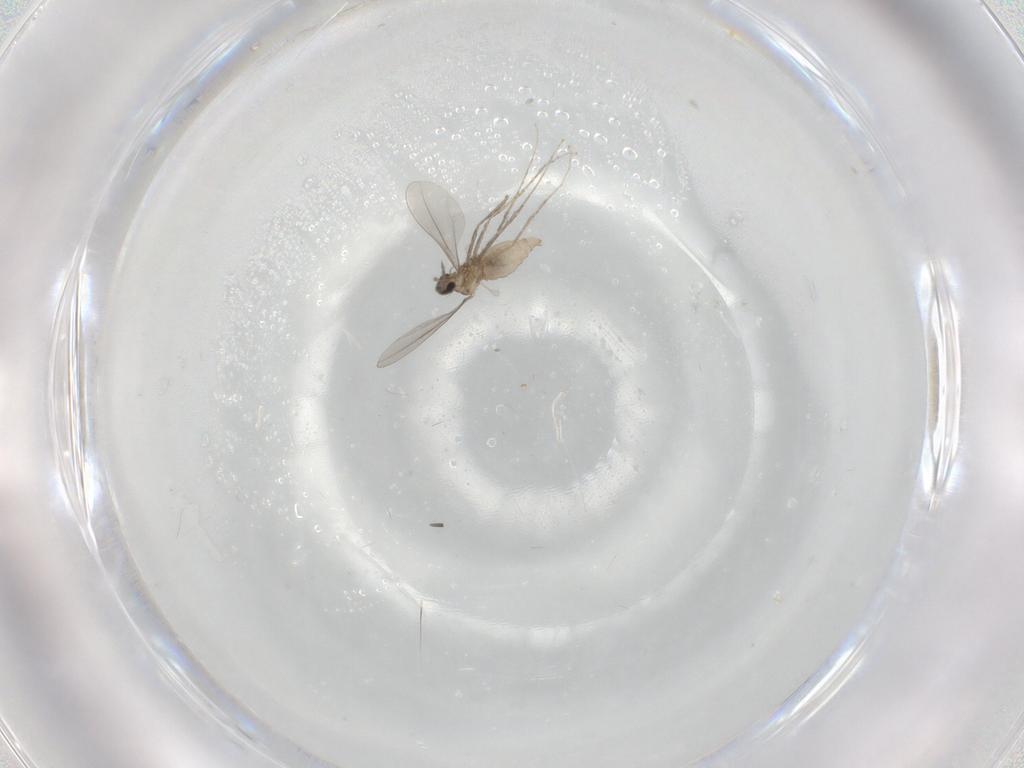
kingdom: Animalia
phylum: Arthropoda
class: Insecta
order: Diptera
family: Cecidomyiidae
